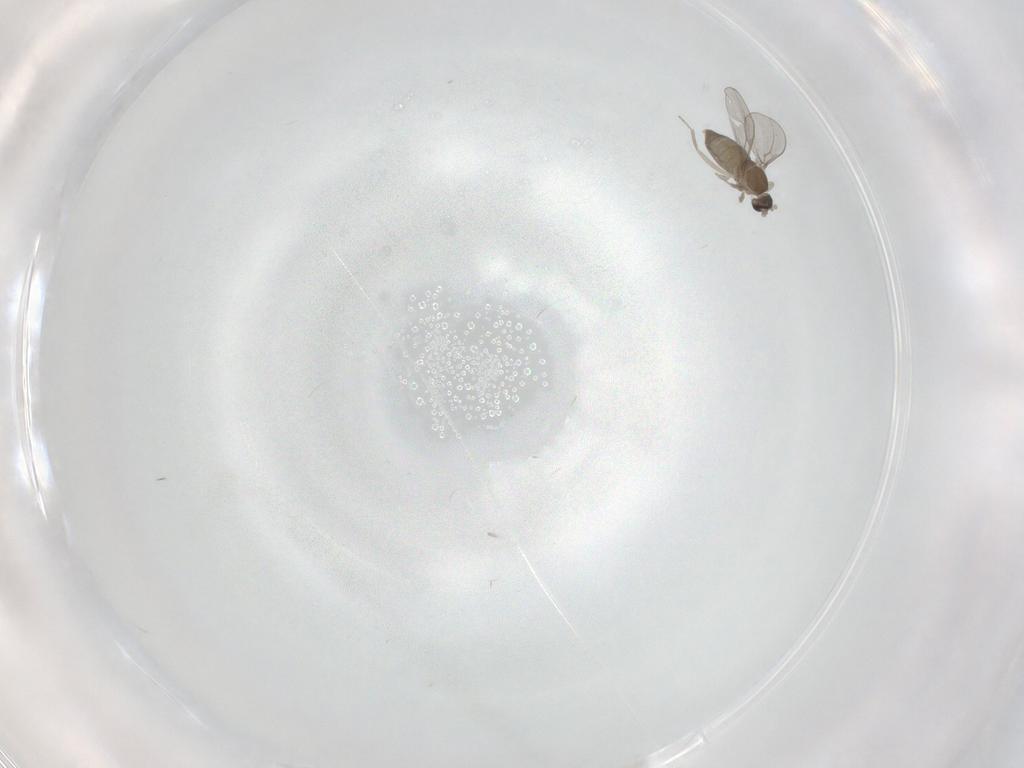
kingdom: Animalia
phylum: Arthropoda
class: Insecta
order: Diptera
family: Cecidomyiidae
